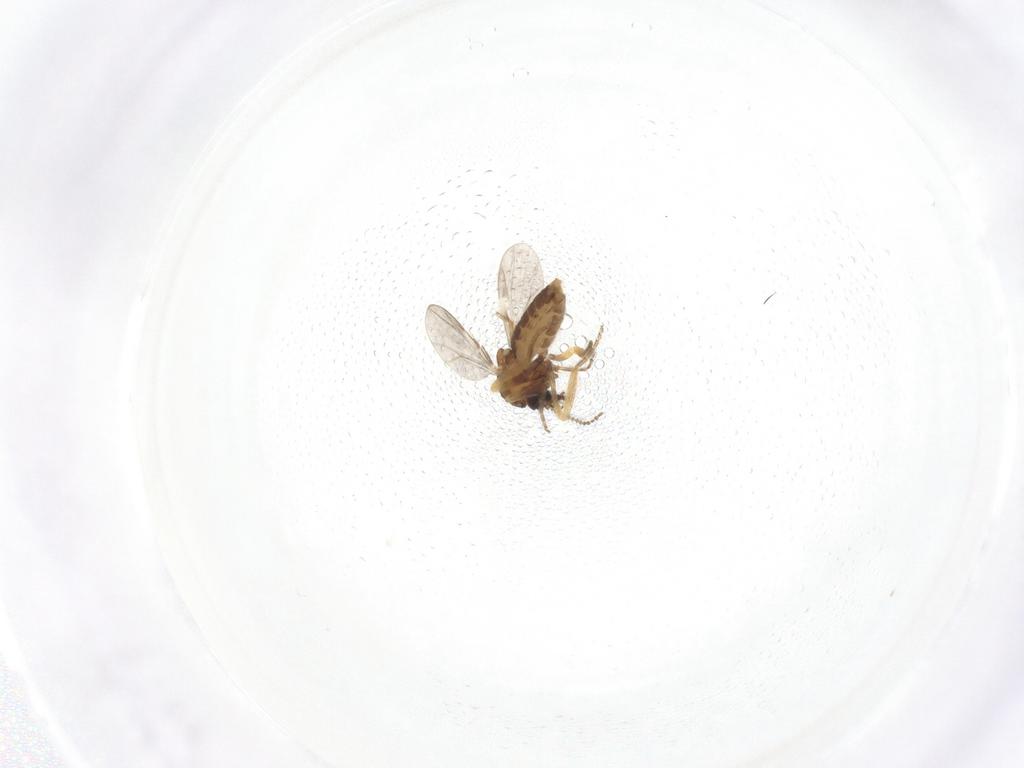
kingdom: Animalia
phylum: Arthropoda
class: Insecta
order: Diptera
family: Ceratopogonidae
